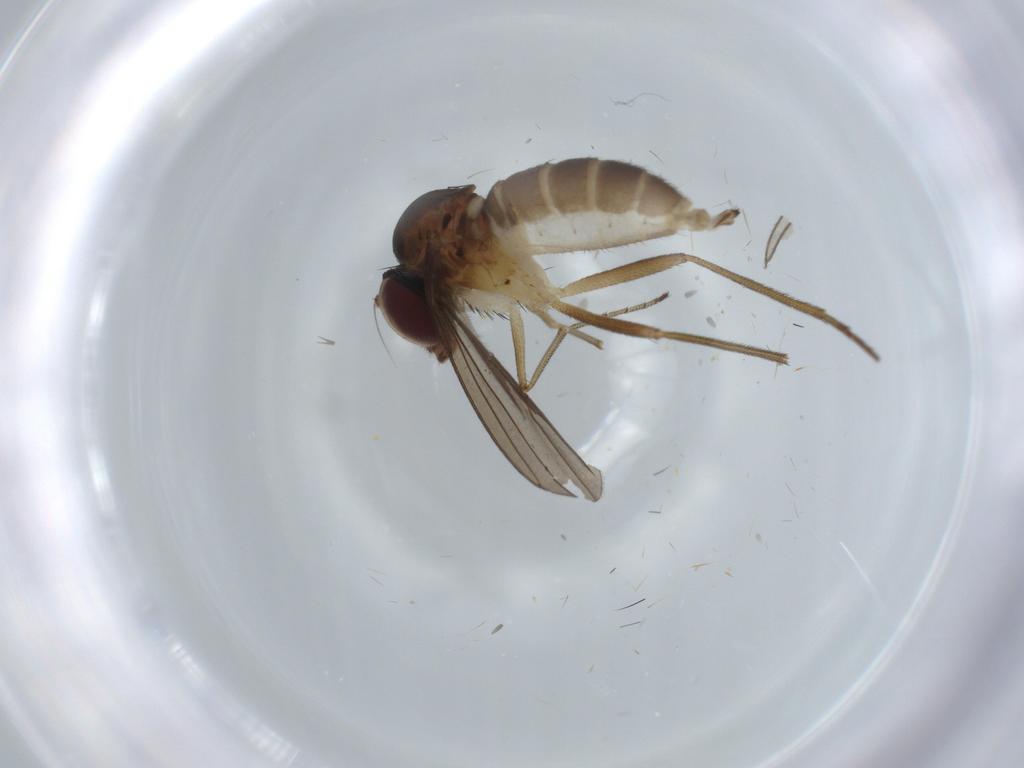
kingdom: Animalia
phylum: Arthropoda
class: Insecta
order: Diptera
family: Dolichopodidae
